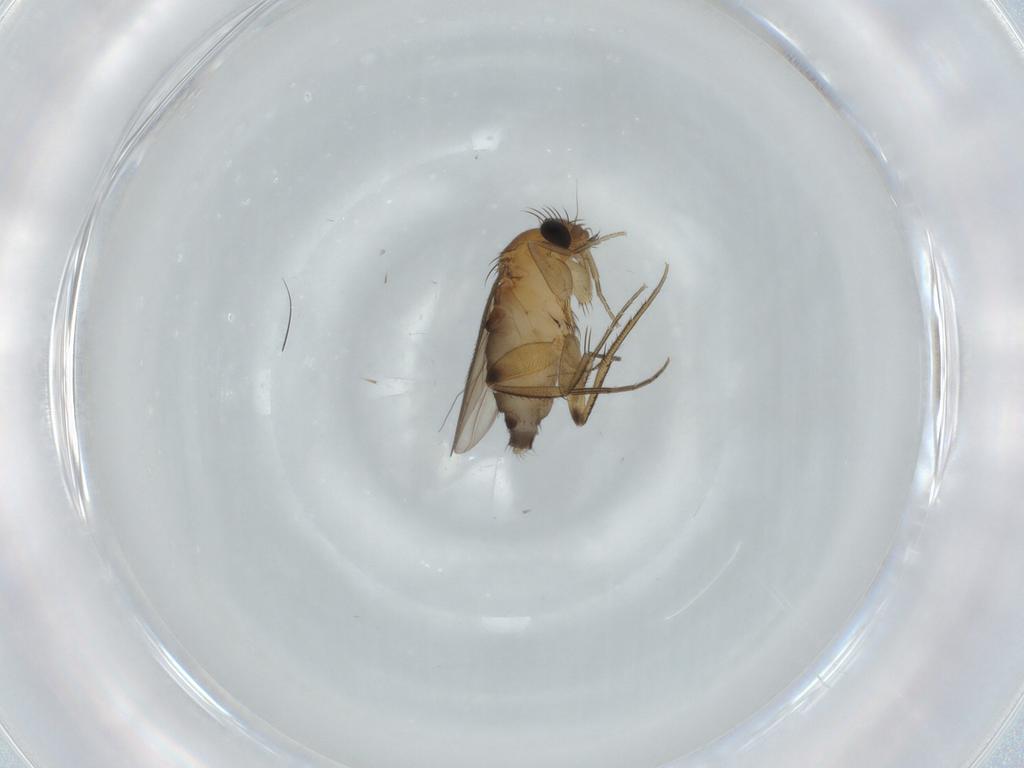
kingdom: Animalia
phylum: Arthropoda
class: Insecta
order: Diptera
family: Phoridae
